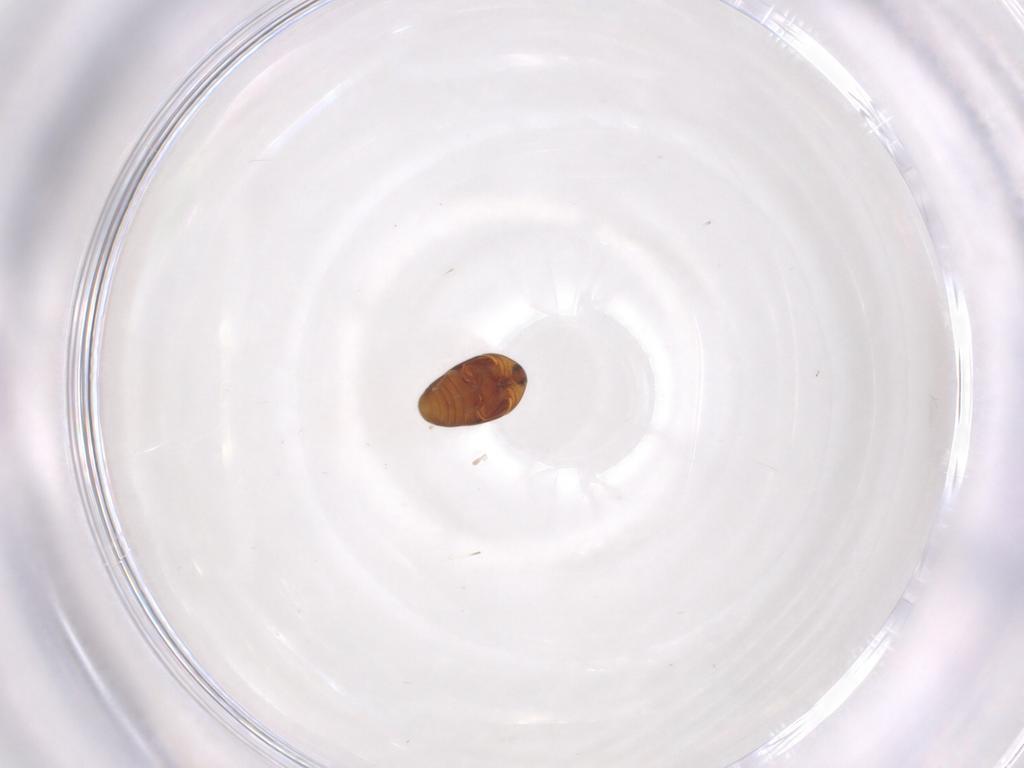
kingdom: Animalia
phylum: Arthropoda
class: Insecta
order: Coleoptera
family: Corylophidae
